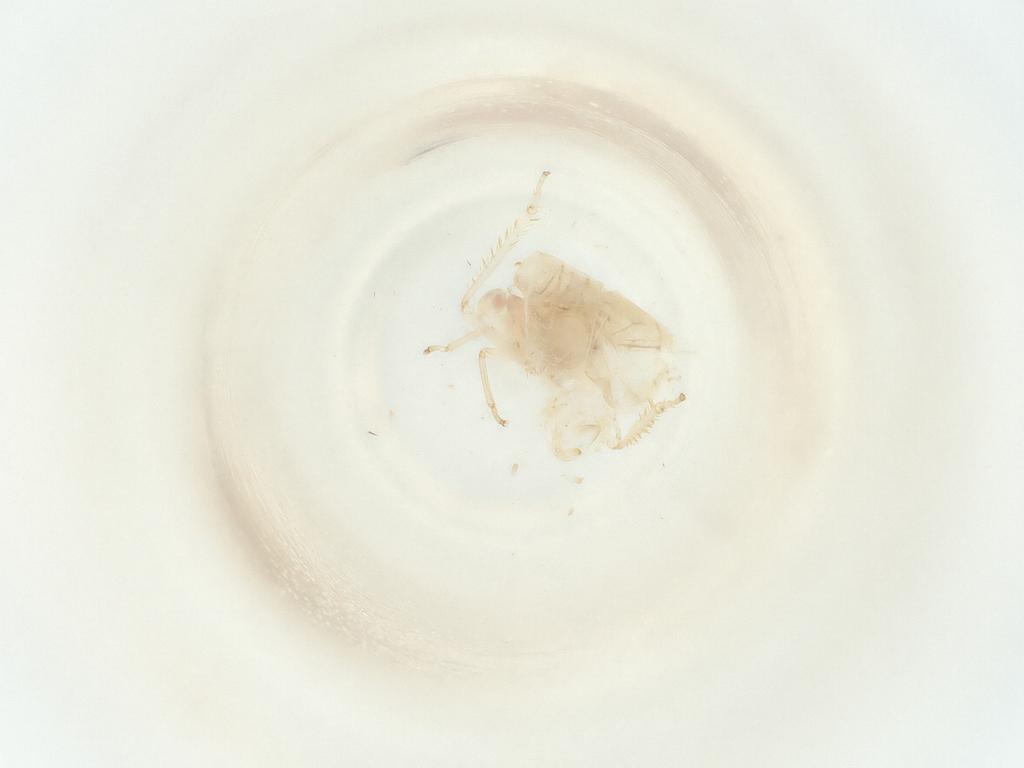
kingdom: Animalia
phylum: Arthropoda
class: Insecta
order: Hemiptera
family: Cicadellidae
